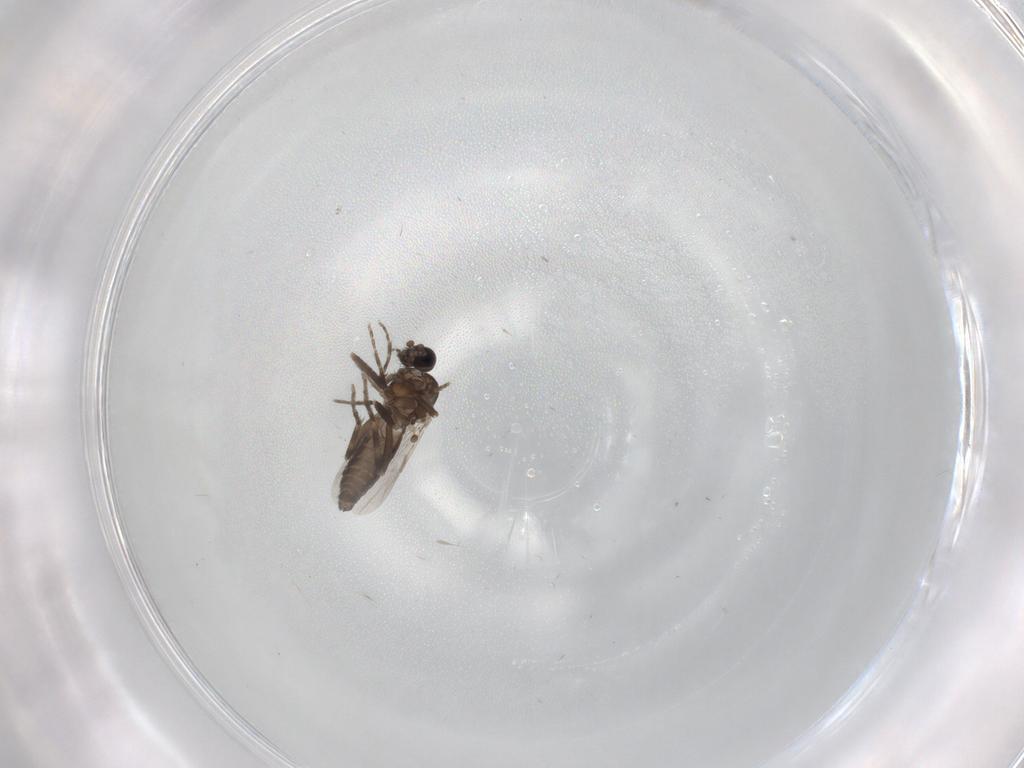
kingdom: Animalia
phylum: Arthropoda
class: Insecta
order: Diptera
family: Ceratopogonidae
